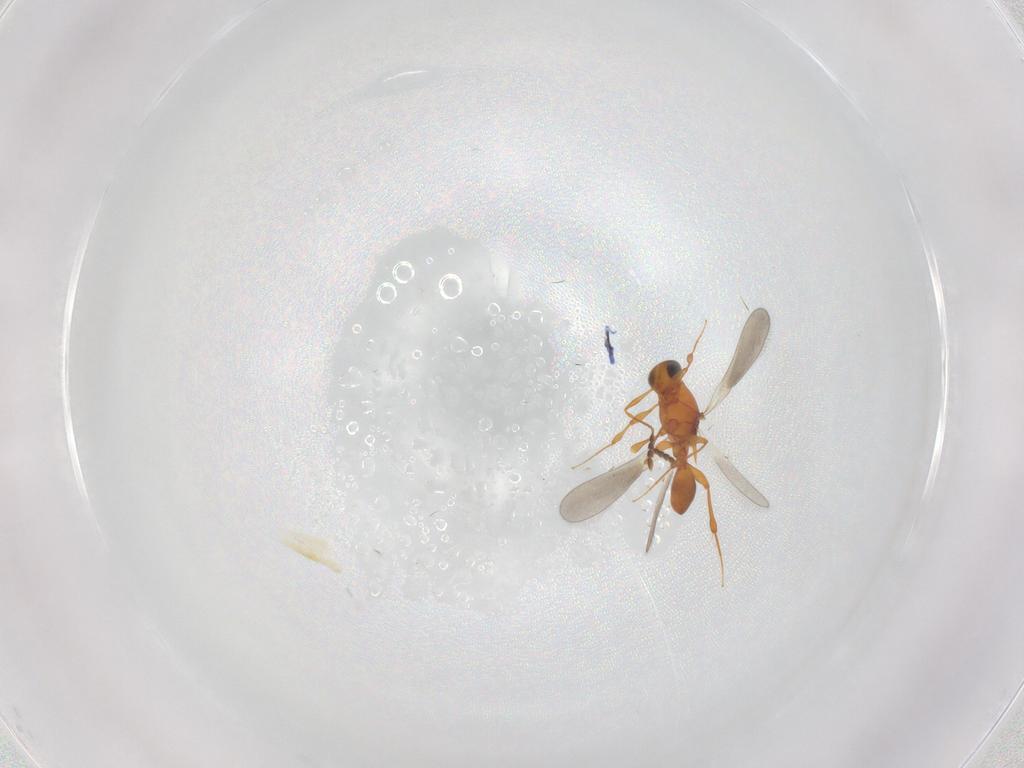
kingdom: Animalia
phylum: Arthropoda
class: Insecta
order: Hymenoptera
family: Platygastridae
